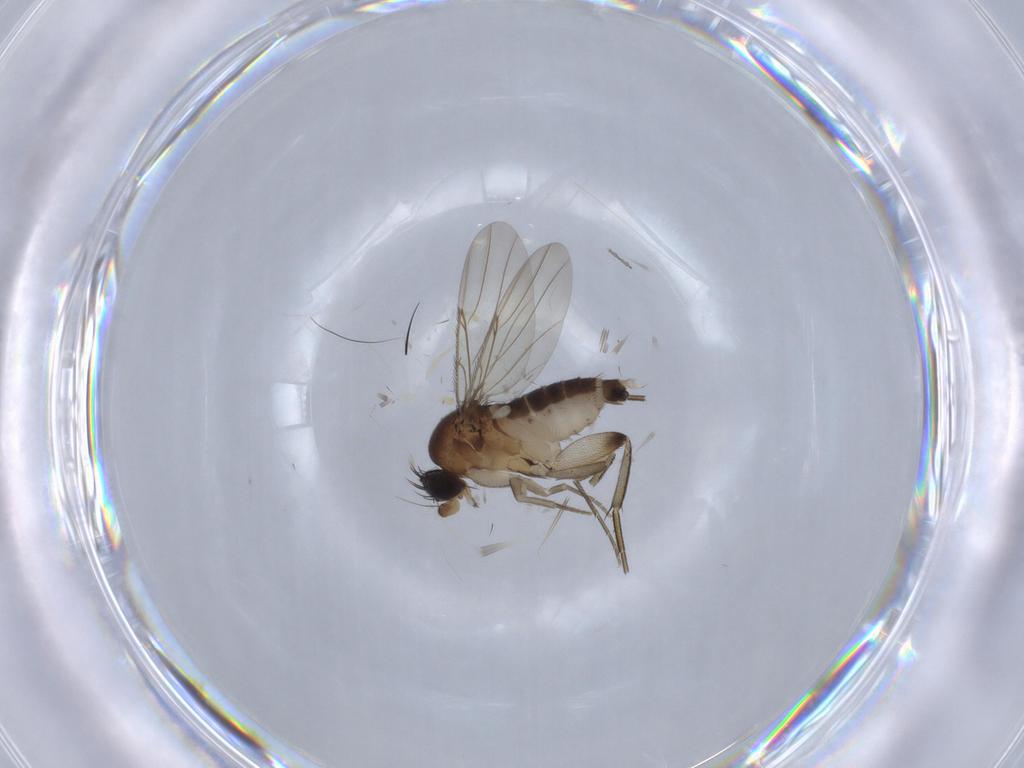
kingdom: Animalia
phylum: Arthropoda
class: Insecta
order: Diptera
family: Phoridae
